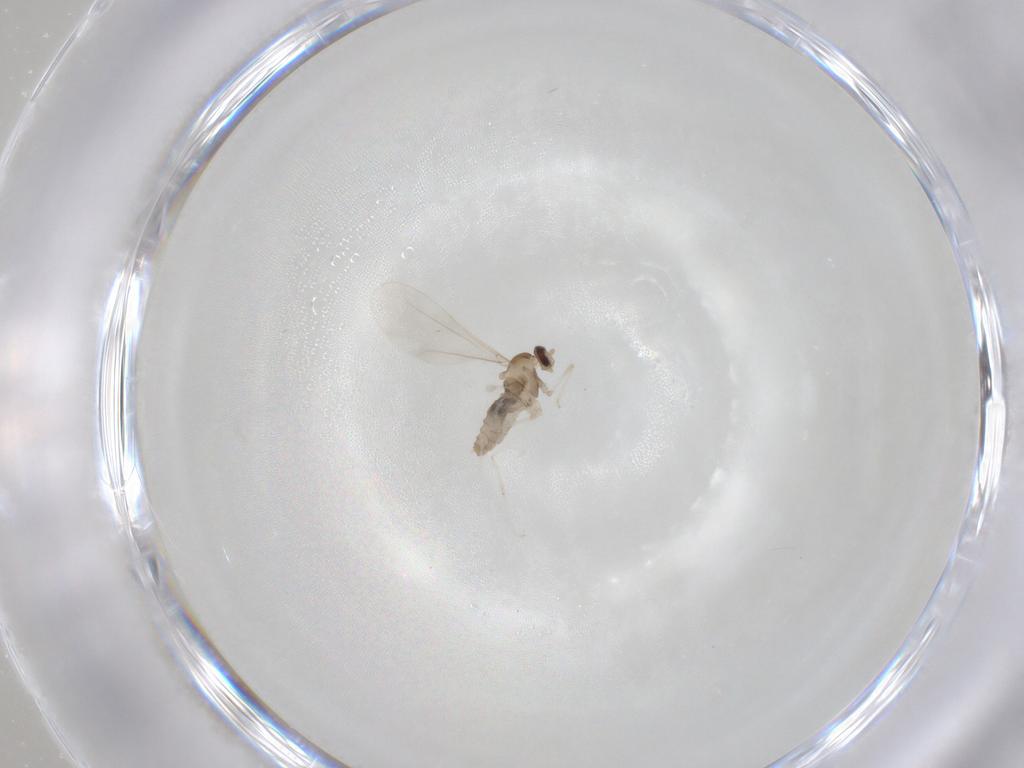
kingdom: Animalia
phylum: Arthropoda
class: Insecta
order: Diptera
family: Cecidomyiidae
